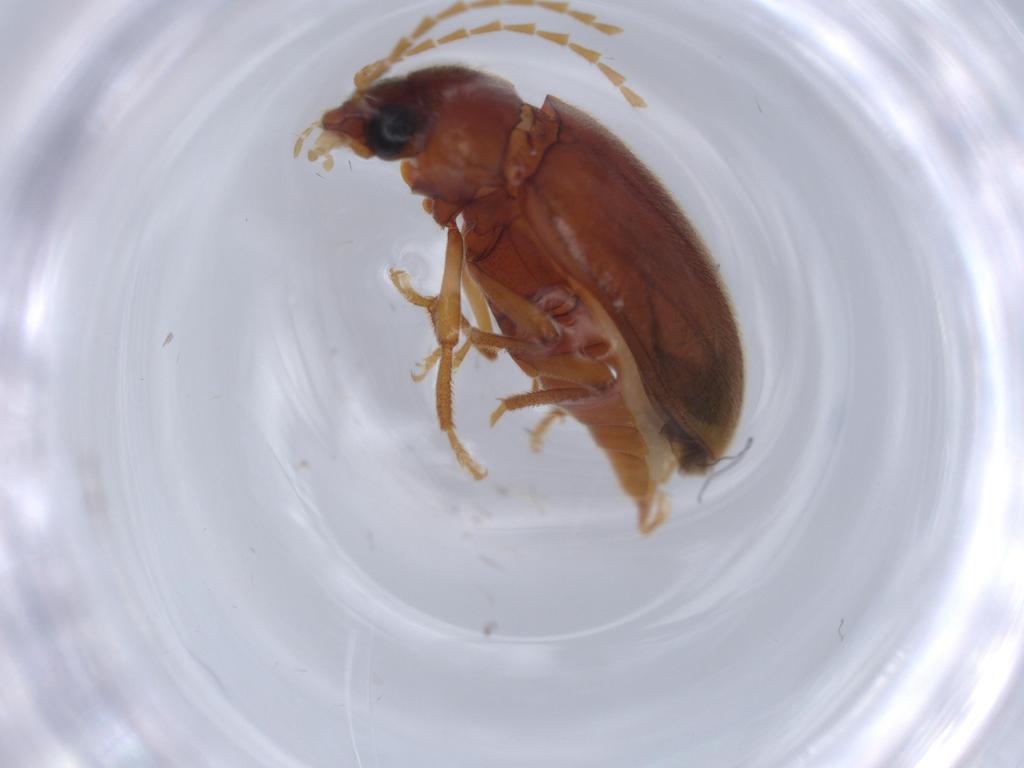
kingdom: Animalia
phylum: Arthropoda
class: Insecta
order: Coleoptera
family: Ptilodactylidae
